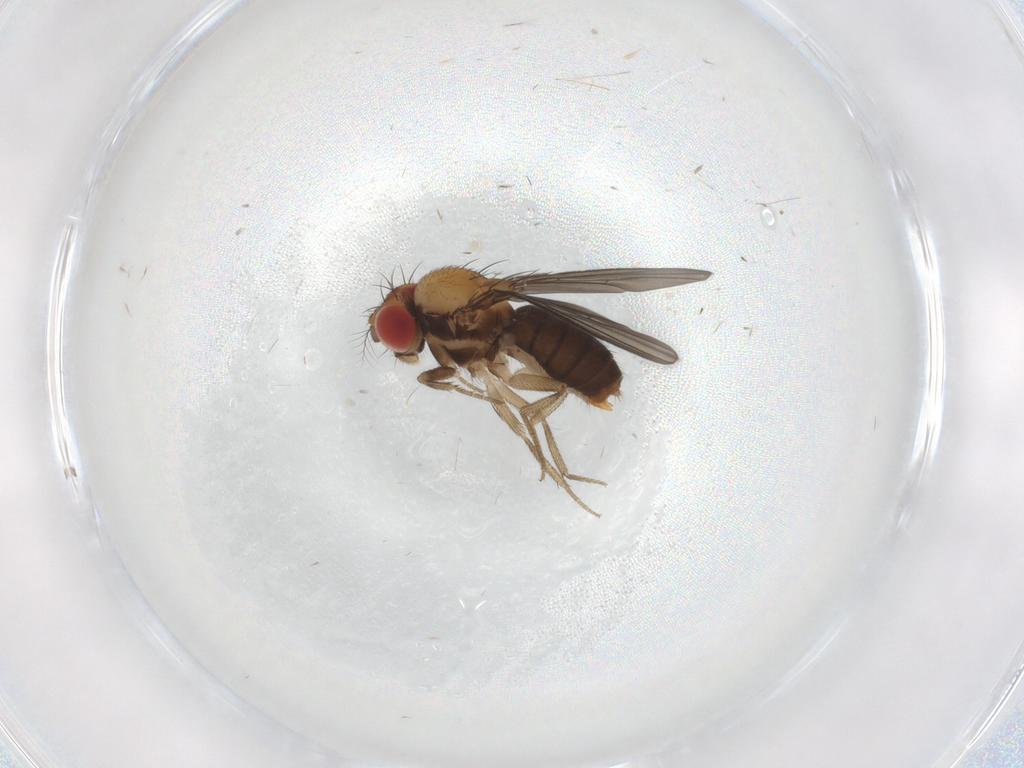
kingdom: Animalia
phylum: Arthropoda
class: Insecta
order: Diptera
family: Drosophilidae
